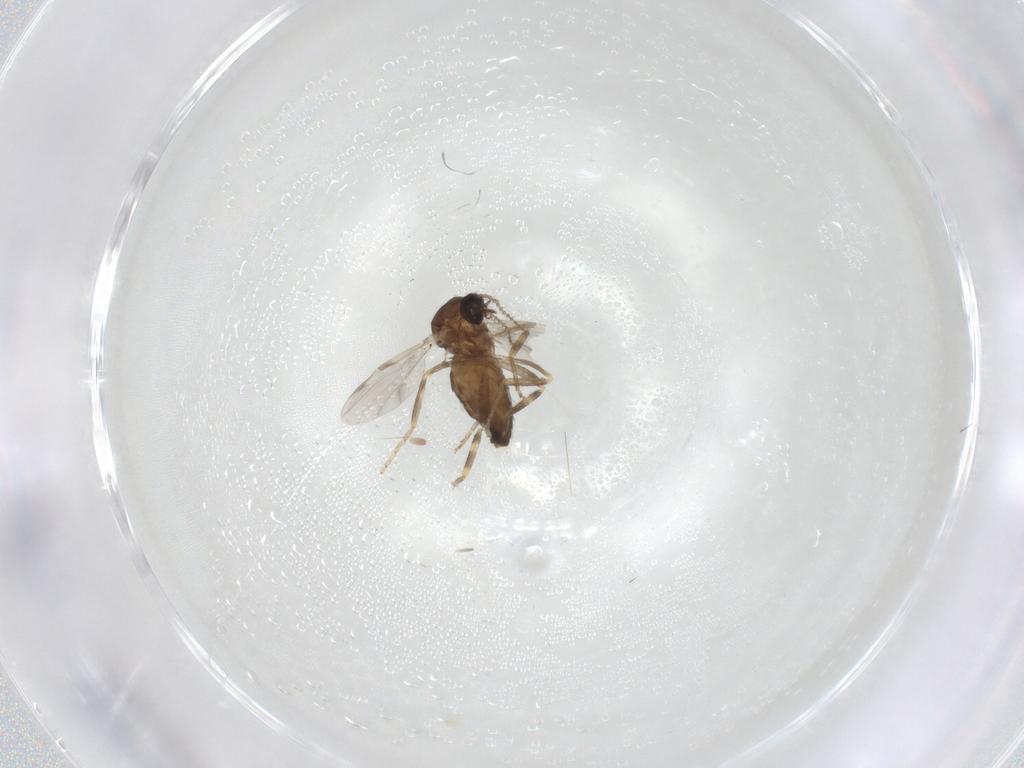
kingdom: Animalia
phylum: Arthropoda
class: Insecta
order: Diptera
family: Ceratopogonidae
